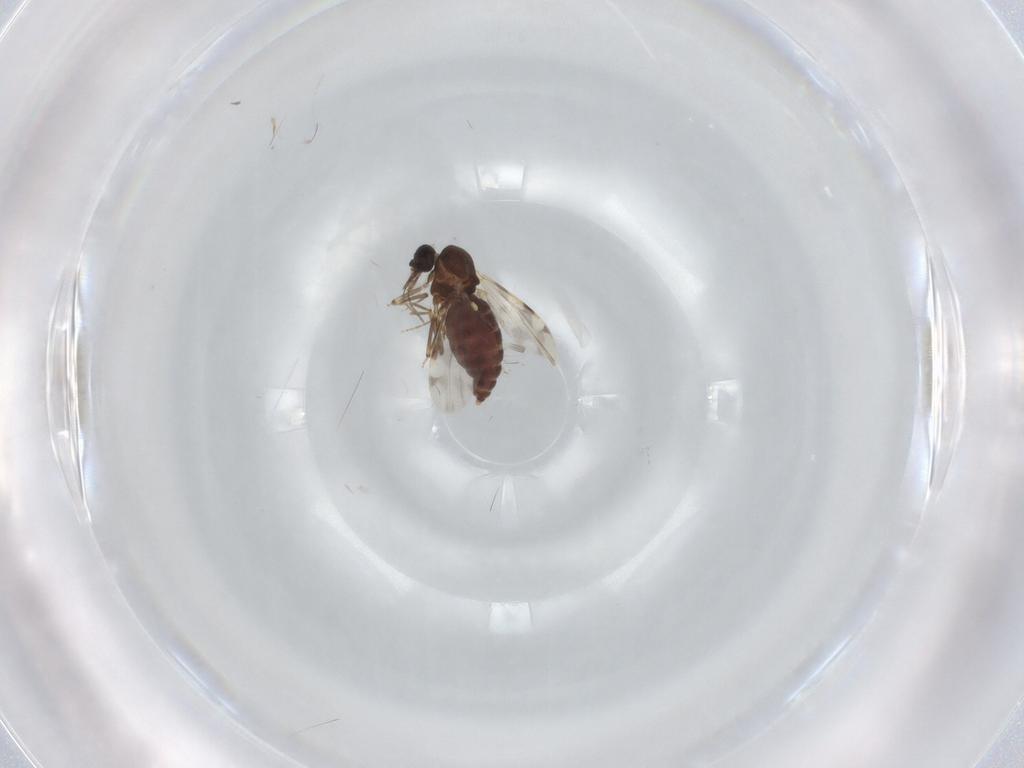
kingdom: Animalia
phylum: Arthropoda
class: Insecta
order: Diptera
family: Ceratopogonidae
